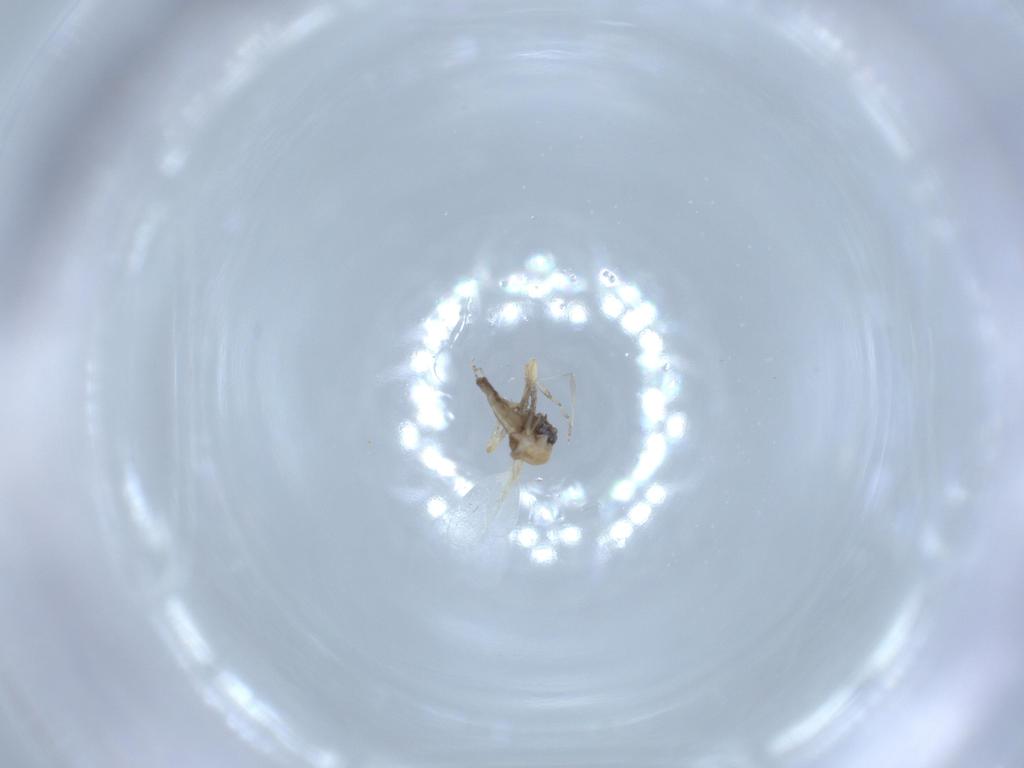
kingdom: Animalia
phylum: Arthropoda
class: Insecta
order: Diptera
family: Ceratopogonidae
